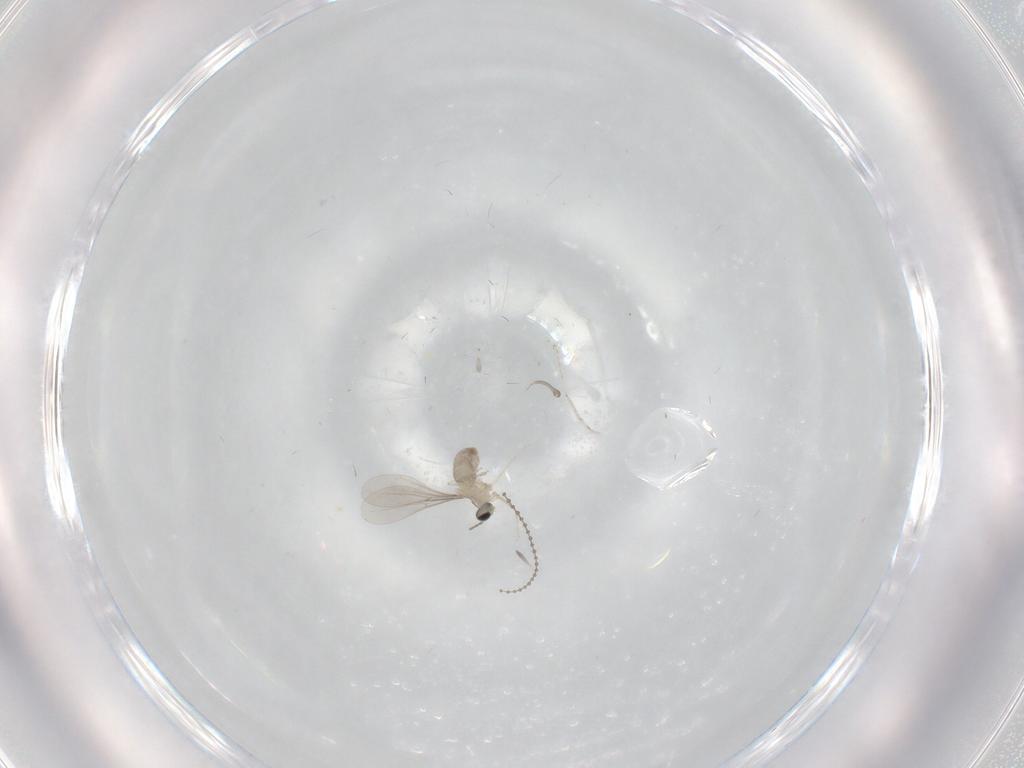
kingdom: Animalia
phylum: Arthropoda
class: Insecta
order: Diptera
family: Cecidomyiidae
